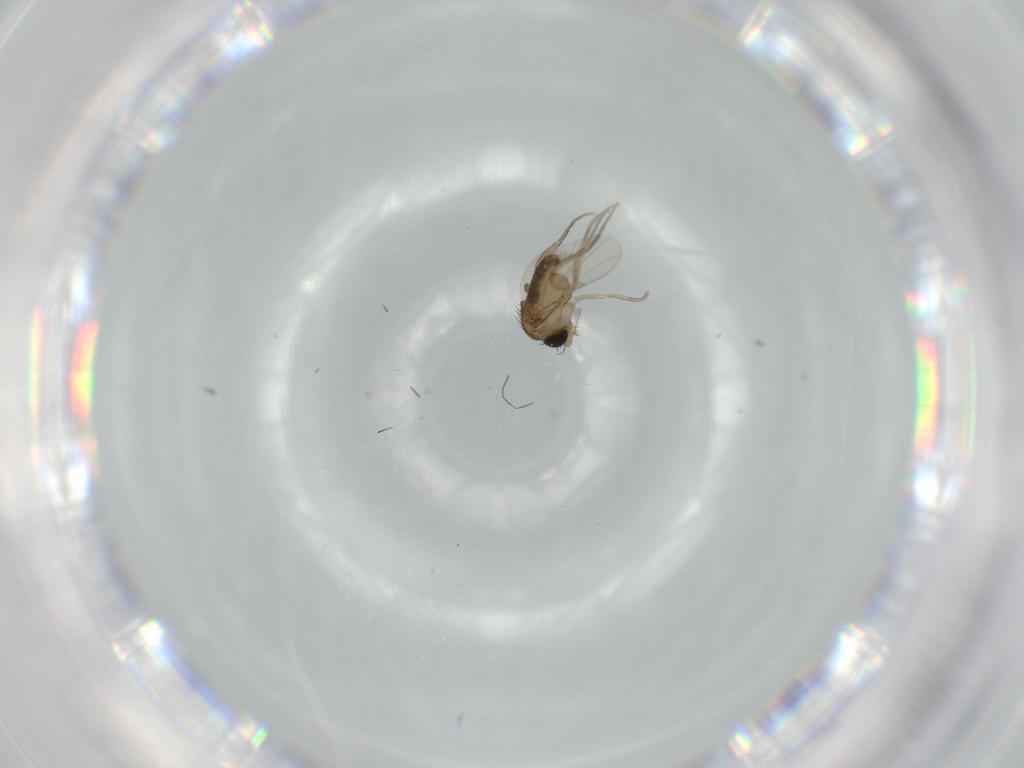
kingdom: Animalia
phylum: Arthropoda
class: Insecta
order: Diptera
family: Phoridae
